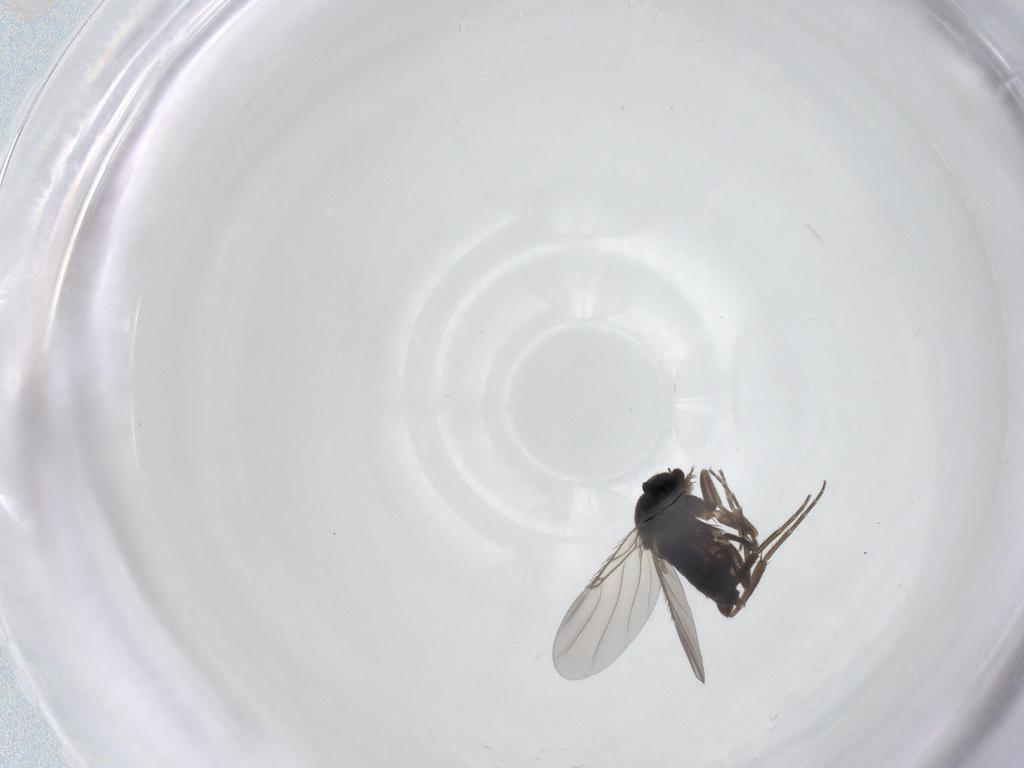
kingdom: Animalia
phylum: Arthropoda
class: Insecta
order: Diptera
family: Phoridae
